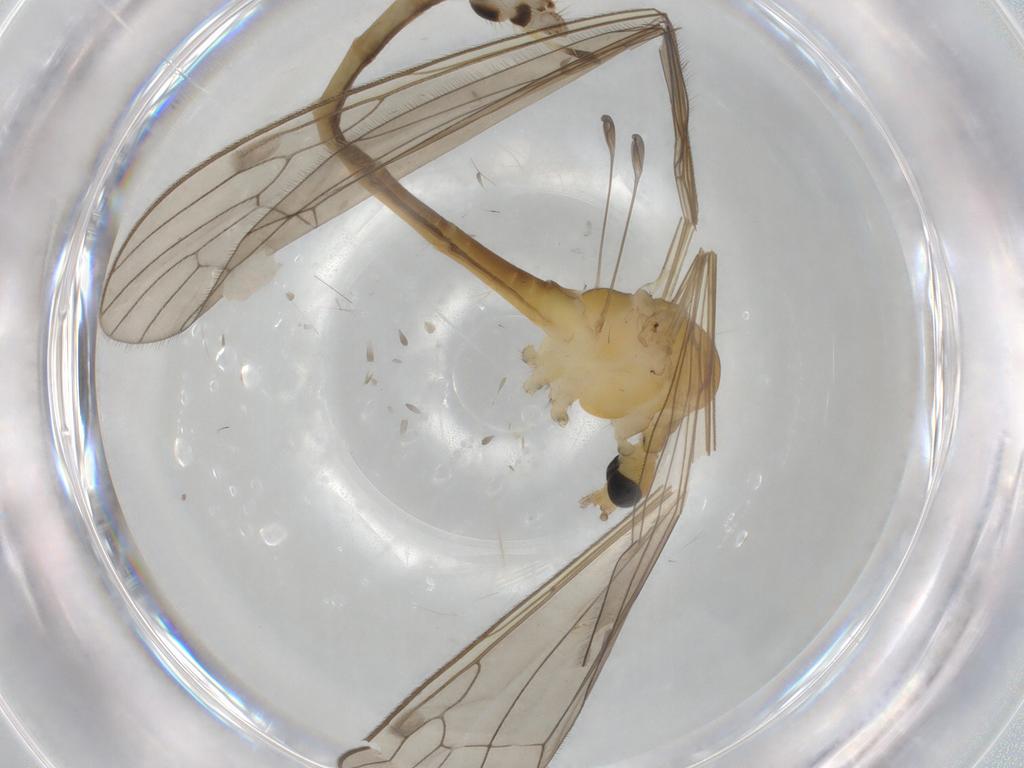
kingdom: Animalia
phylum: Arthropoda
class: Insecta
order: Diptera
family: Limoniidae
